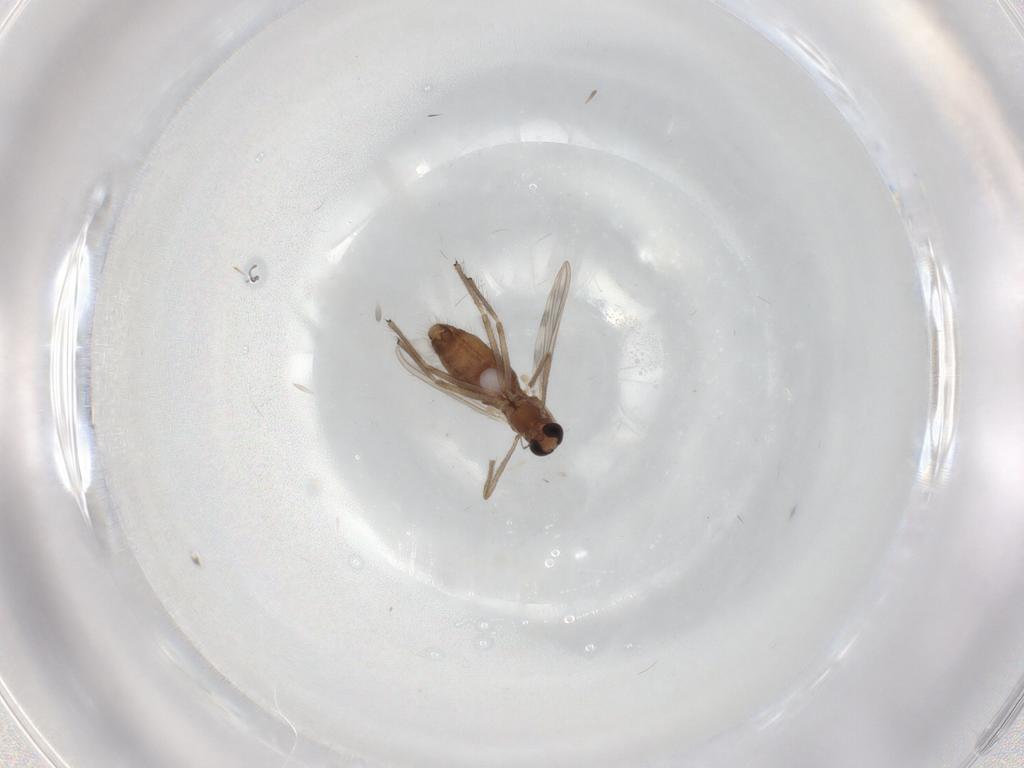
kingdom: Animalia
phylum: Arthropoda
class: Insecta
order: Diptera
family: Chironomidae
